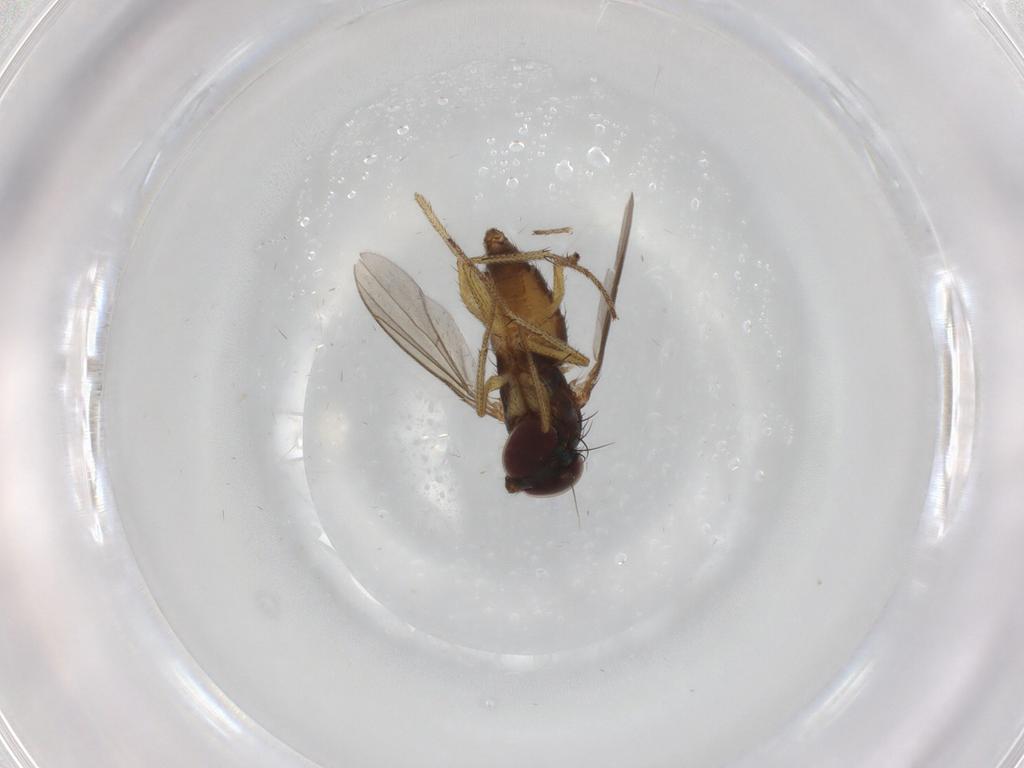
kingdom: Animalia
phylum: Arthropoda
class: Insecta
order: Diptera
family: Dolichopodidae
